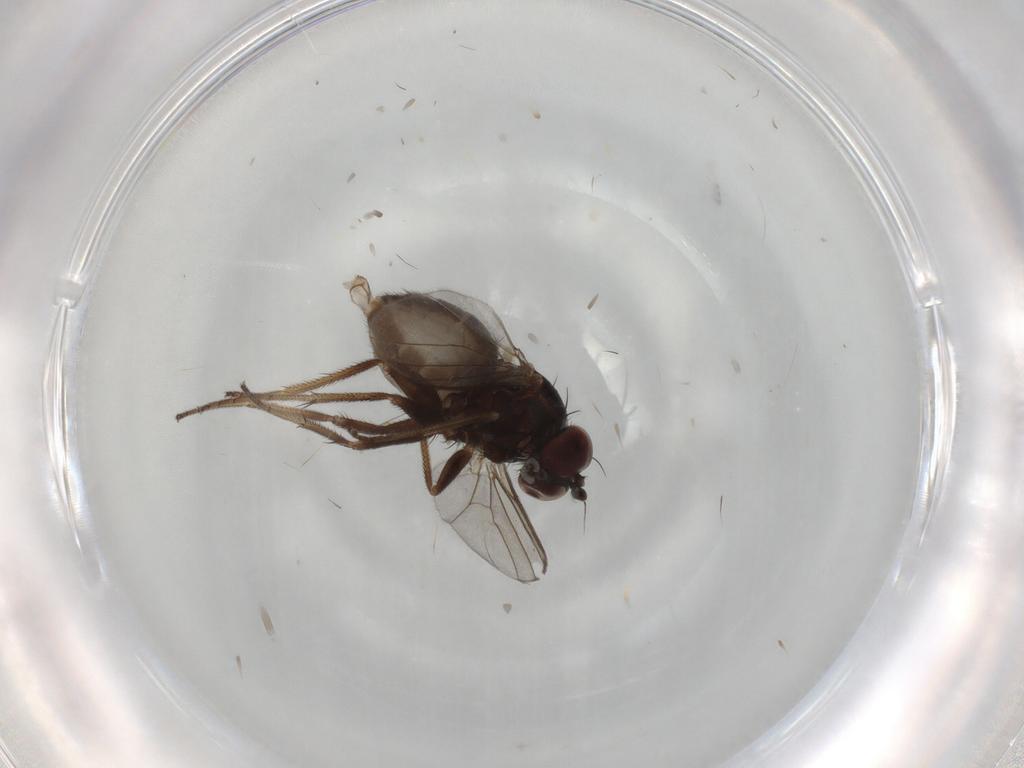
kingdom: Animalia
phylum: Arthropoda
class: Insecta
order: Diptera
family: Dolichopodidae
